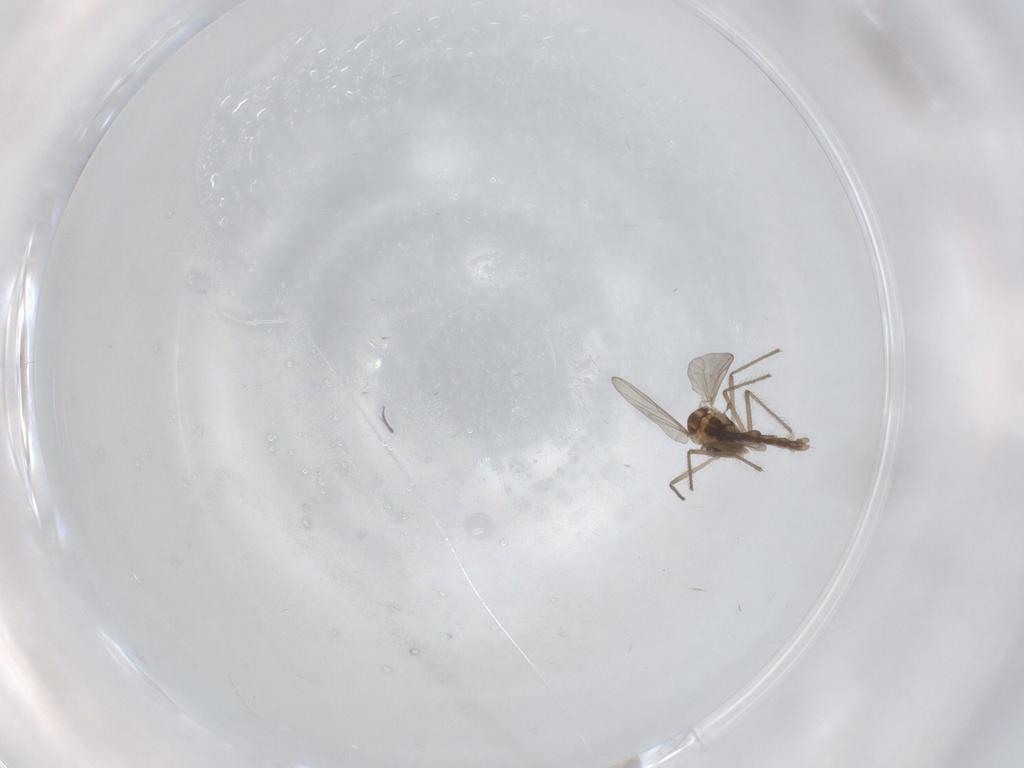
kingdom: Animalia
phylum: Arthropoda
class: Insecta
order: Diptera
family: Chironomidae
